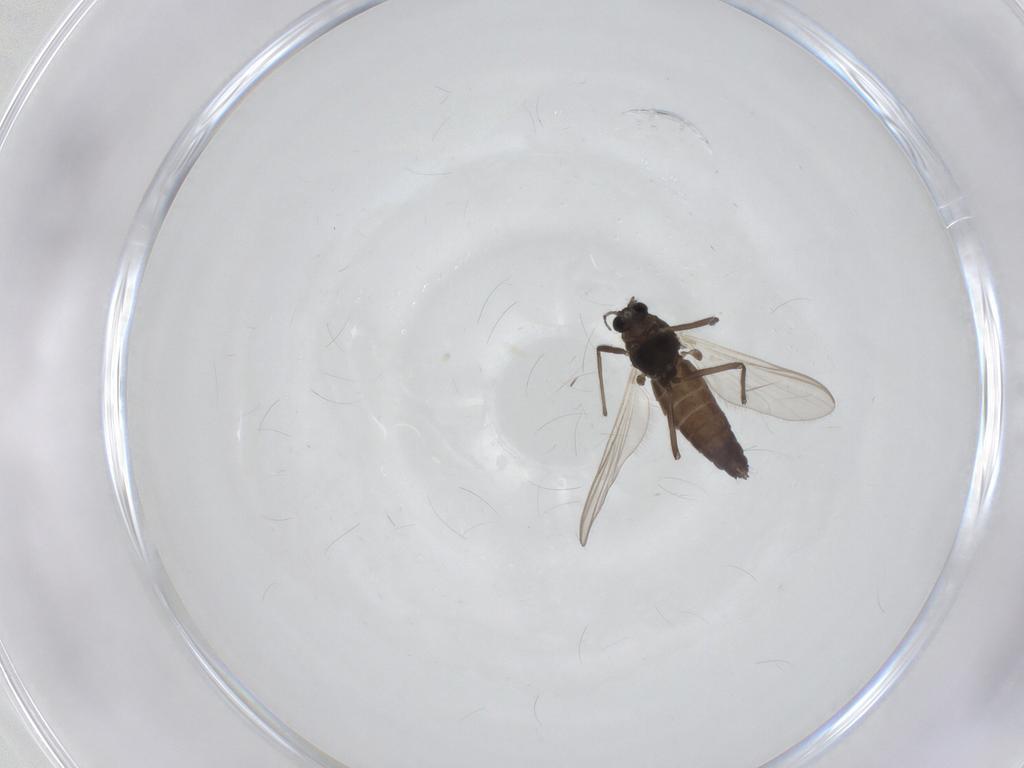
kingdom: Animalia
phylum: Arthropoda
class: Insecta
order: Diptera
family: Chironomidae
